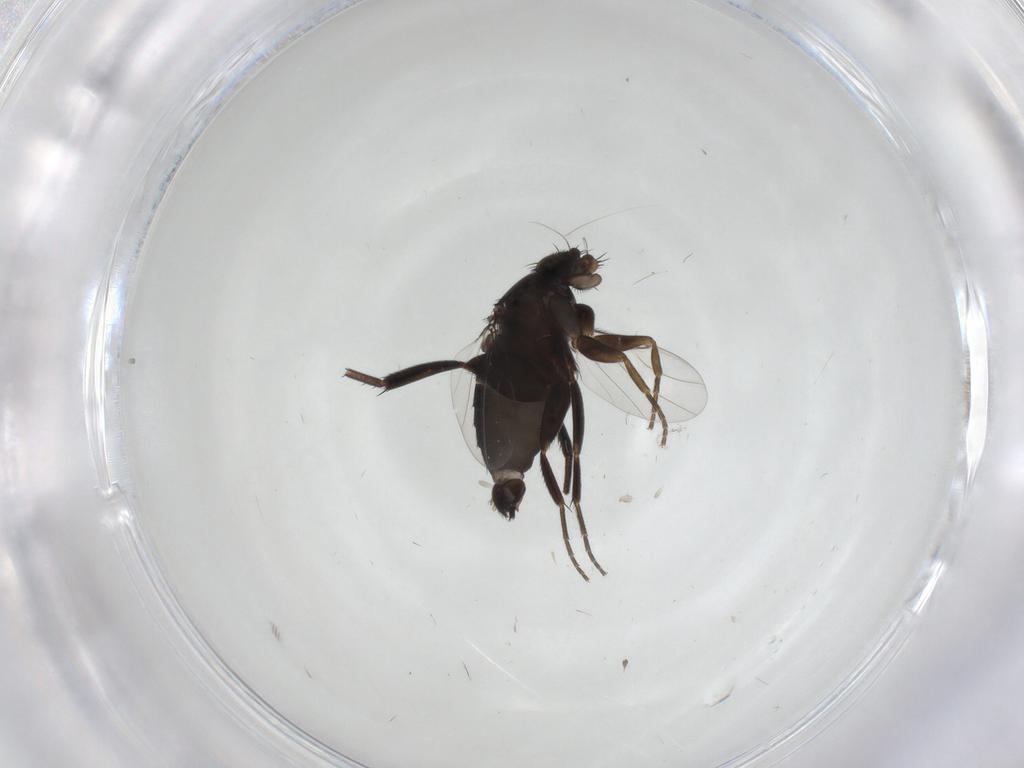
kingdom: Animalia
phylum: Arthropoda
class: Insecta
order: Diptera
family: Phoridae
